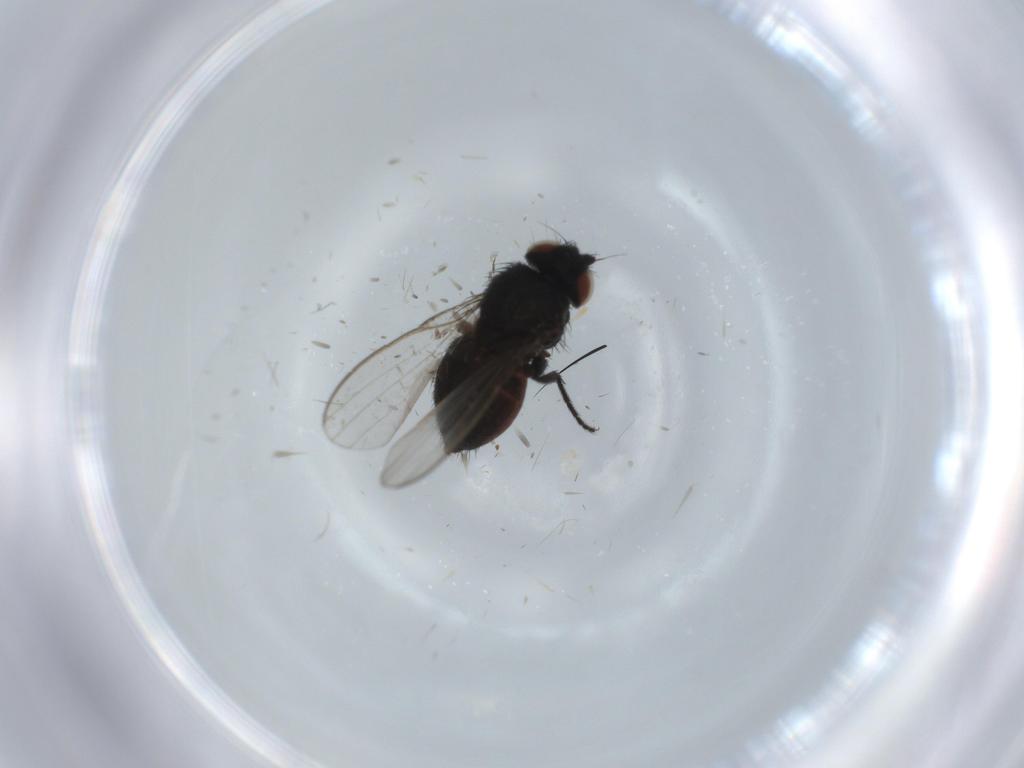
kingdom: Animalia
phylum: Arthropoda
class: Insecta
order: Diptera
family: Milichiidae
